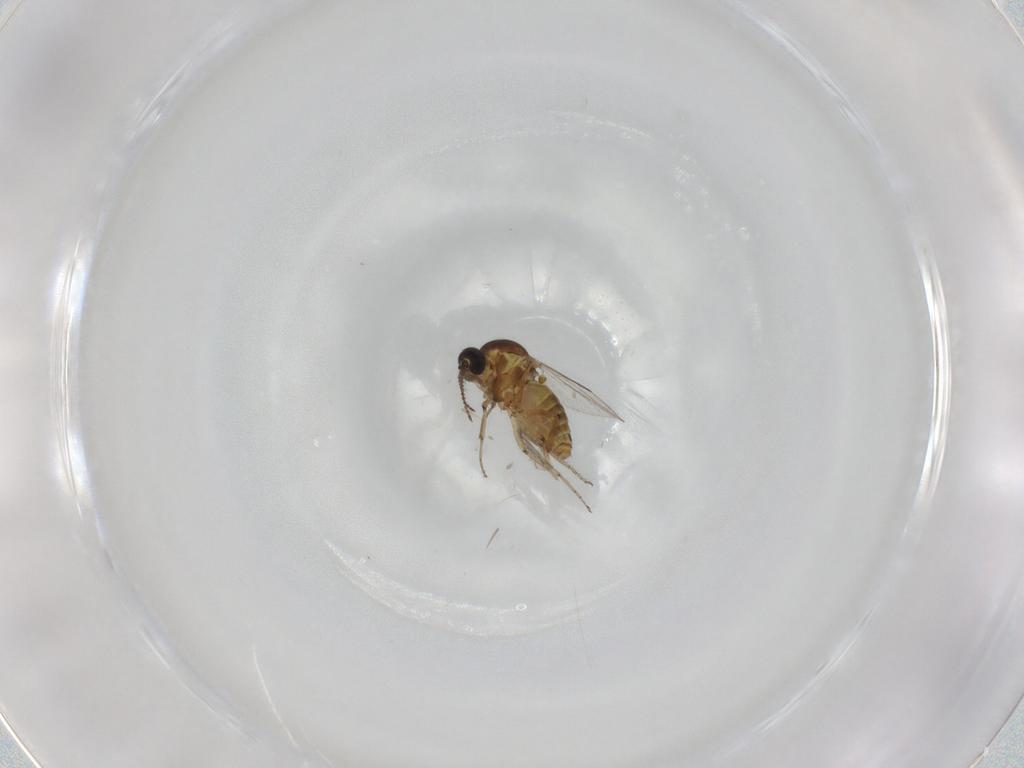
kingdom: Animalia
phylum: Arthropoda
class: Insecta
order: Diptera
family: Ceratopogonidae
